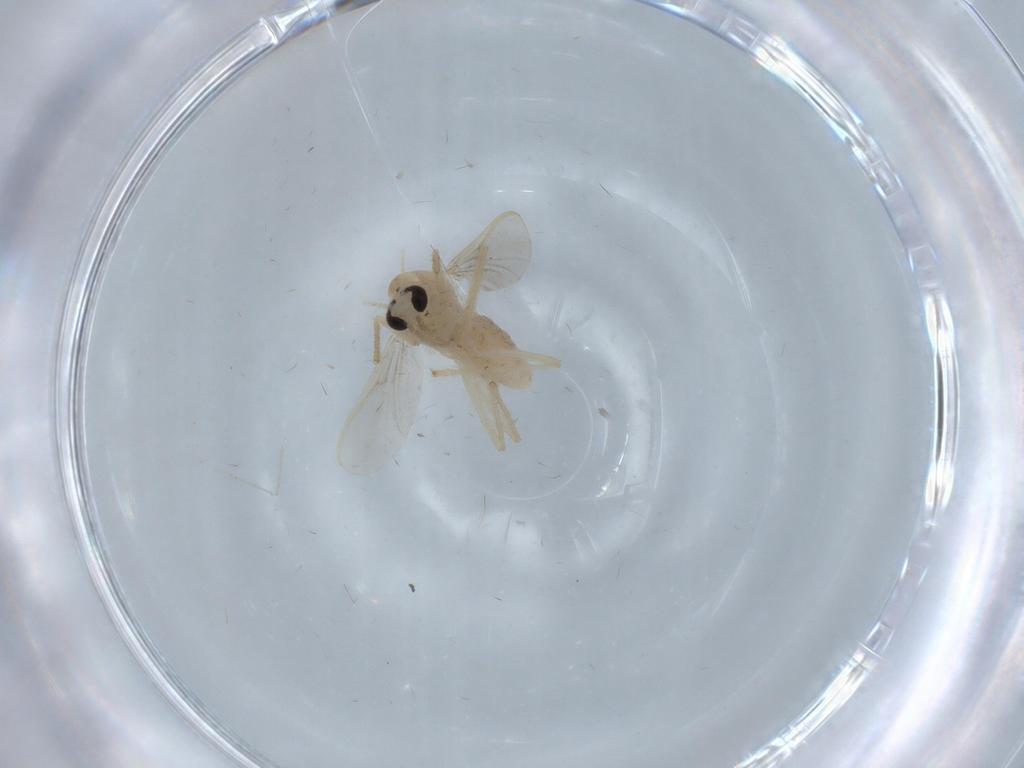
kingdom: Animalia
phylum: Arthropoda
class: Insecta
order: Diptera
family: Chironomidae
